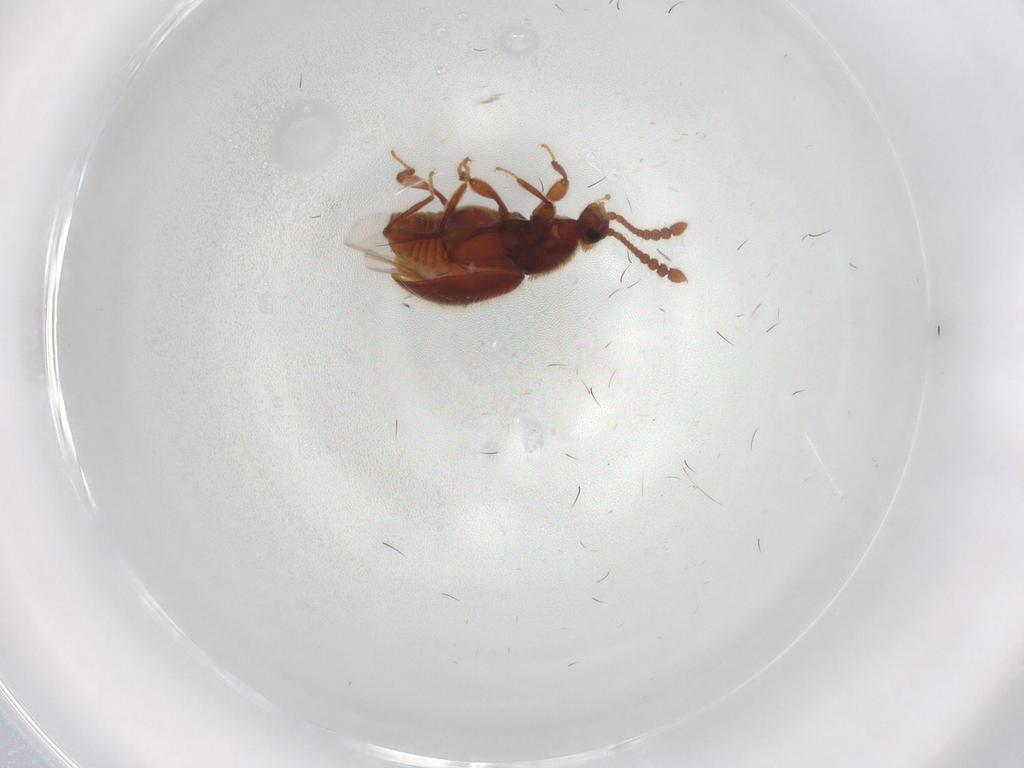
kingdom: Animalia
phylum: Arthropoda
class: Insecta
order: Coleoptera
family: Staphylinidae
